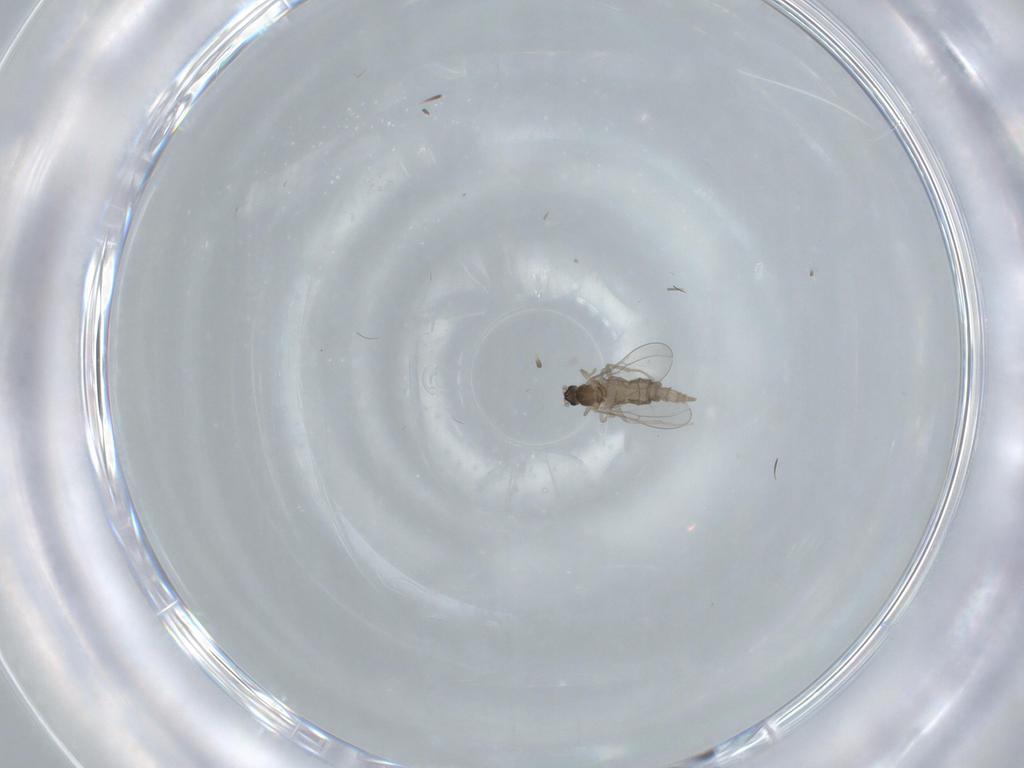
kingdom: Animalia
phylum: Arthropoda
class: Insecta
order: Diptera
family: Cecidomyiidae
